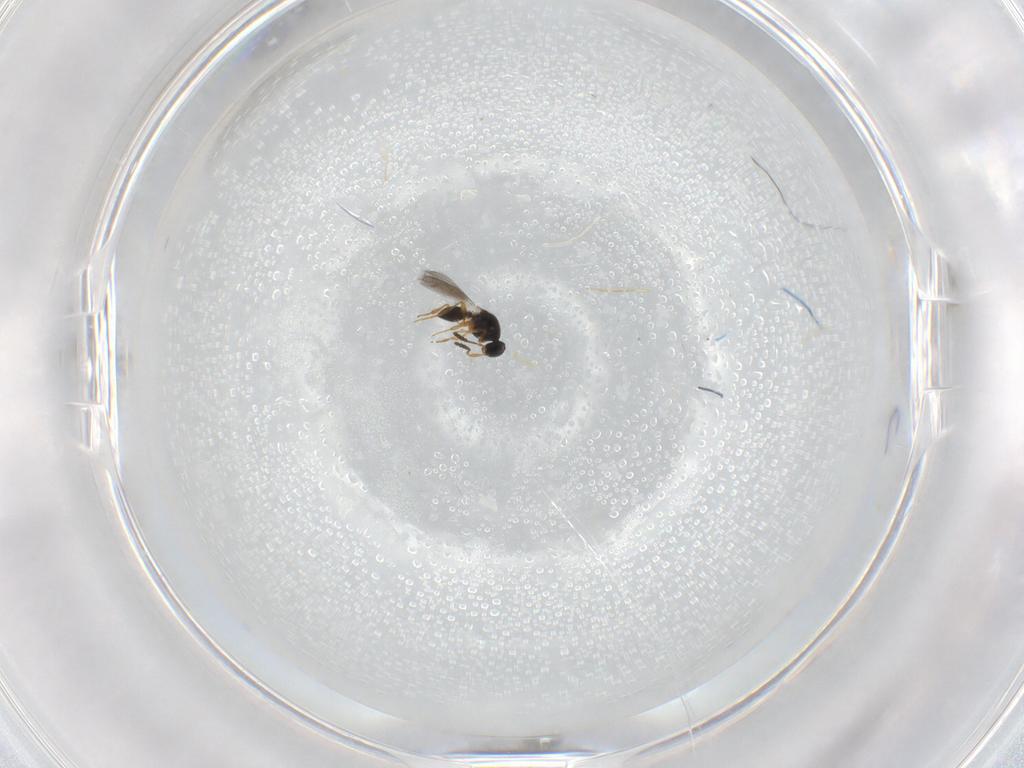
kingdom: Animalia
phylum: Arthropoda
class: Insecta
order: Hymenoptera
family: Platygastridae
